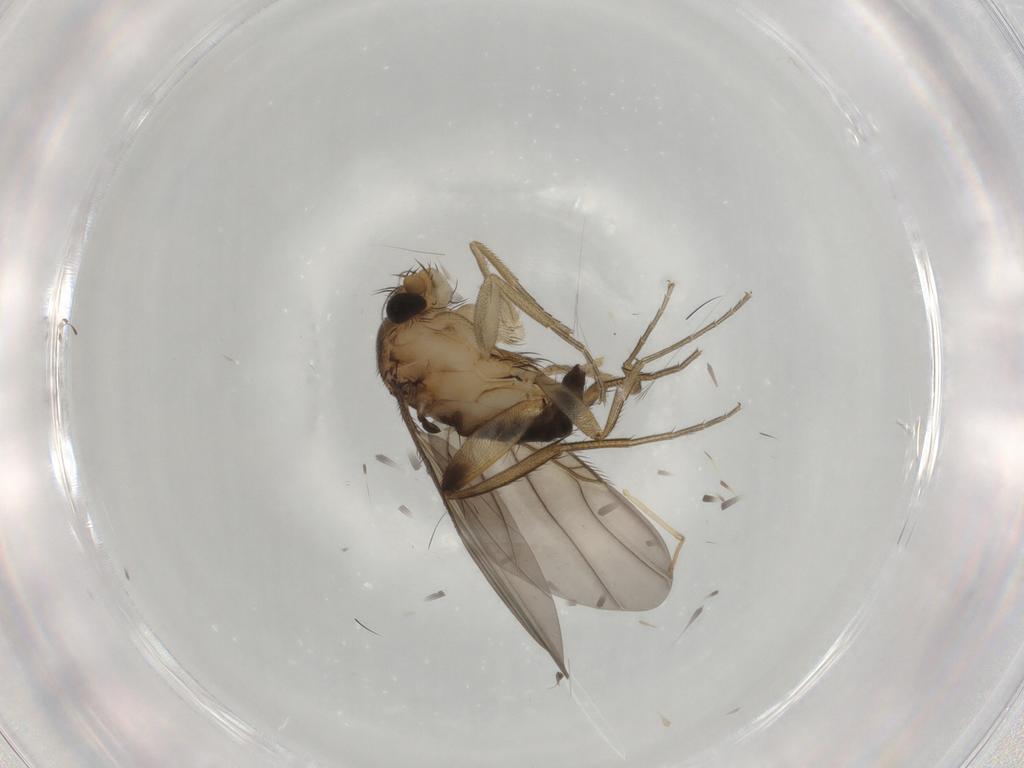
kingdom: Animalia
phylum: Arthropoda
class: Insecta
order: Diptera
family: Phoridae
